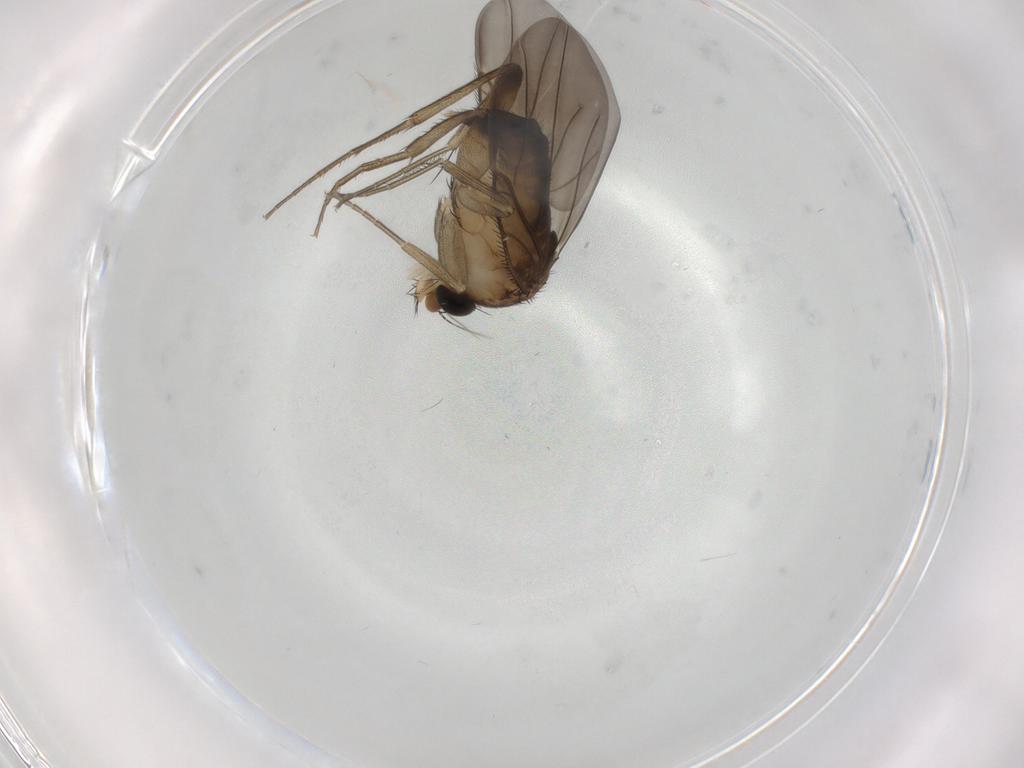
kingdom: Animalia
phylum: Arthropoda
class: Insecta
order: Diptera
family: Phoridae
